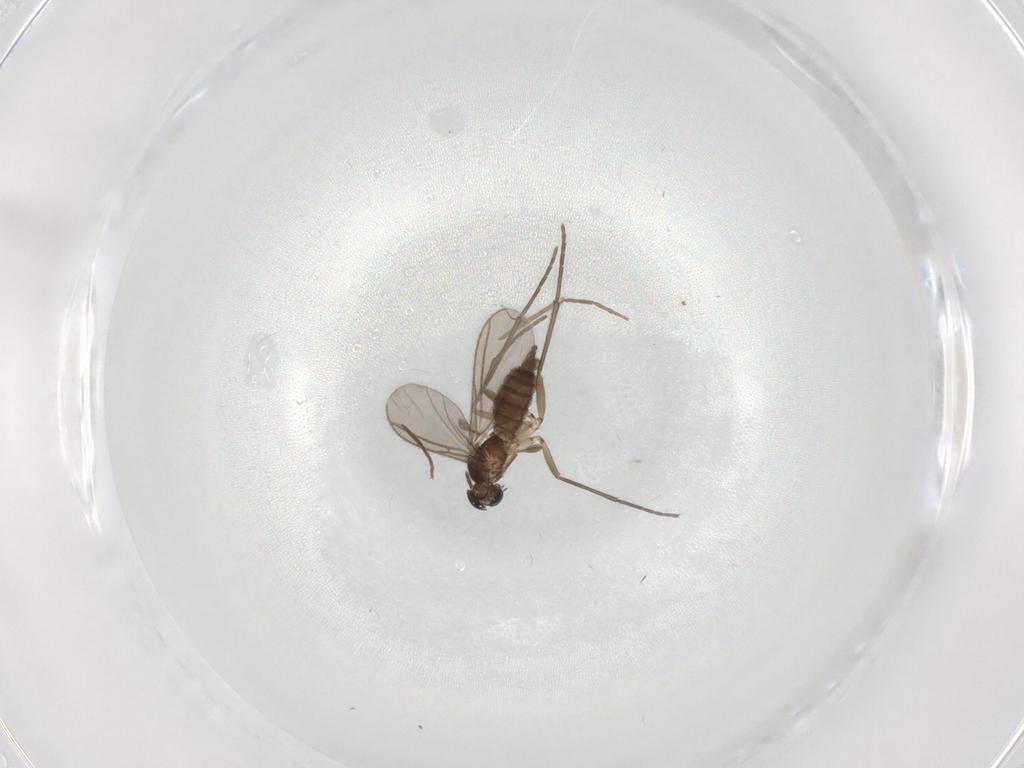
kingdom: Animalia
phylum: Arthropoda
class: Insecta
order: Diptera
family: Sciaridae
